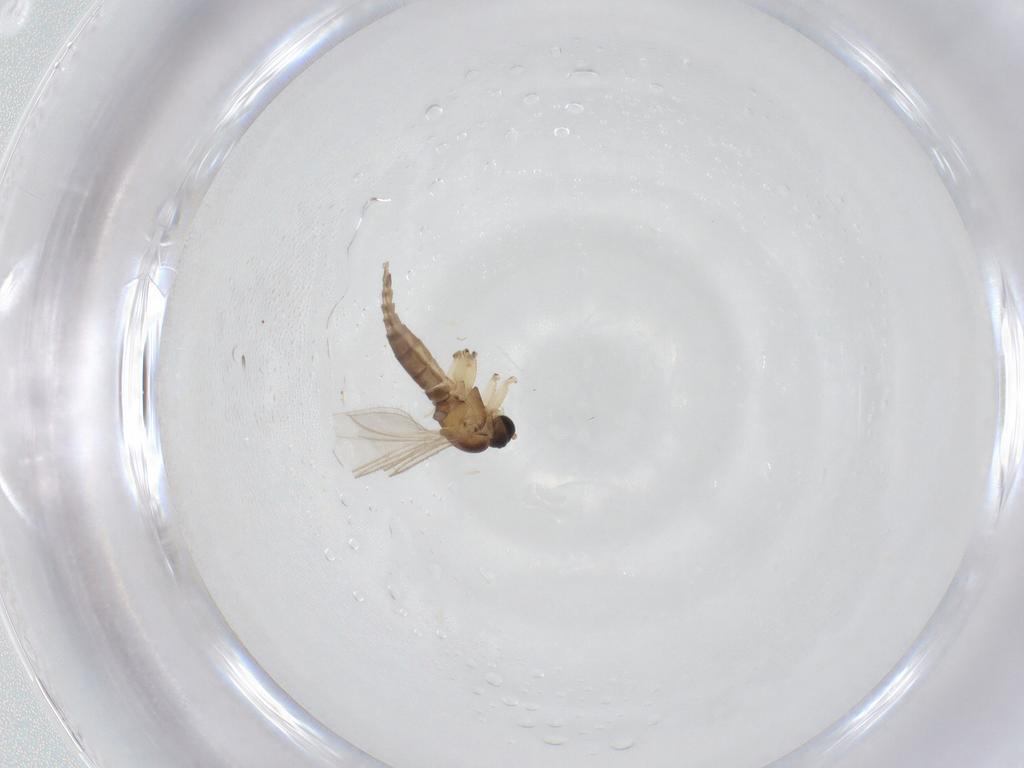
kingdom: Animalia
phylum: Arthropoda
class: Insecta
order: Diptera
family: Sciaridae
